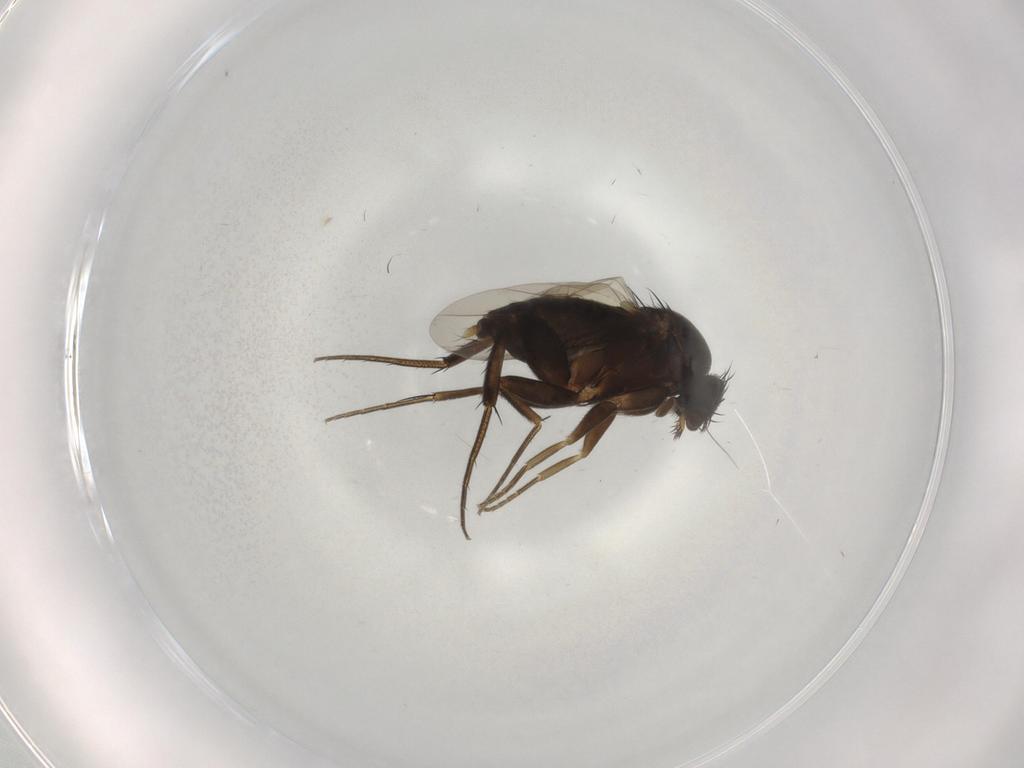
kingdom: Animalia
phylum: Arthropoda
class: Insecta
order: Diptera
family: Phoridae
